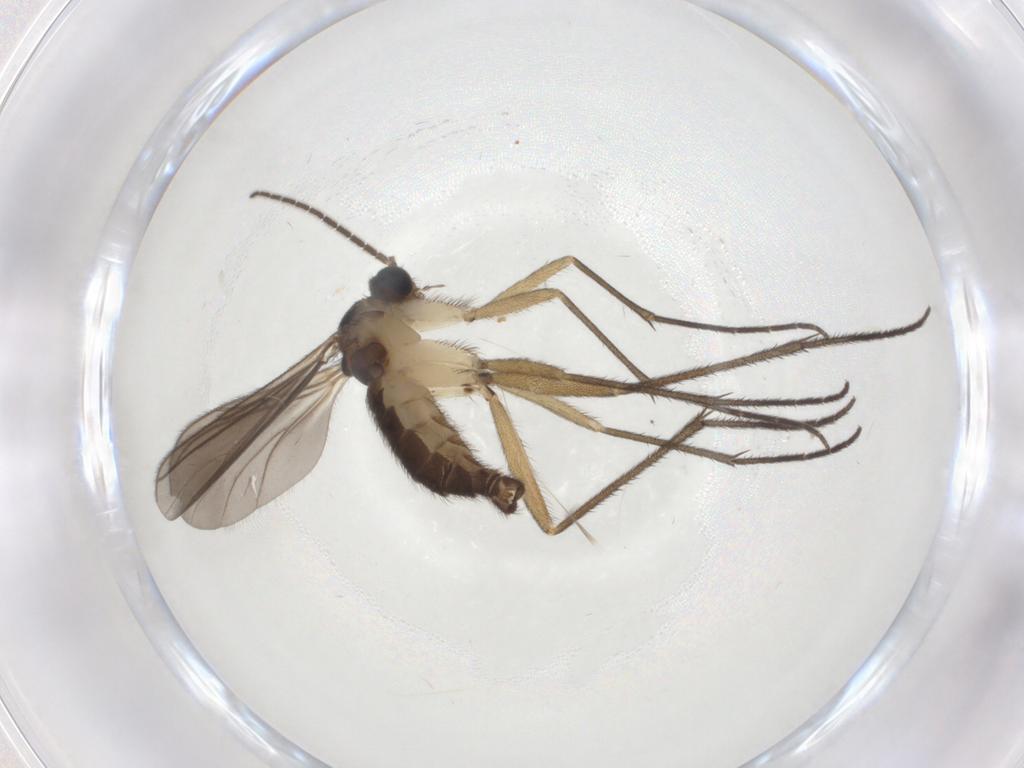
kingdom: Animalia
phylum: Arthropoda
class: Insecta
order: Diptera
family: Sciaridae
